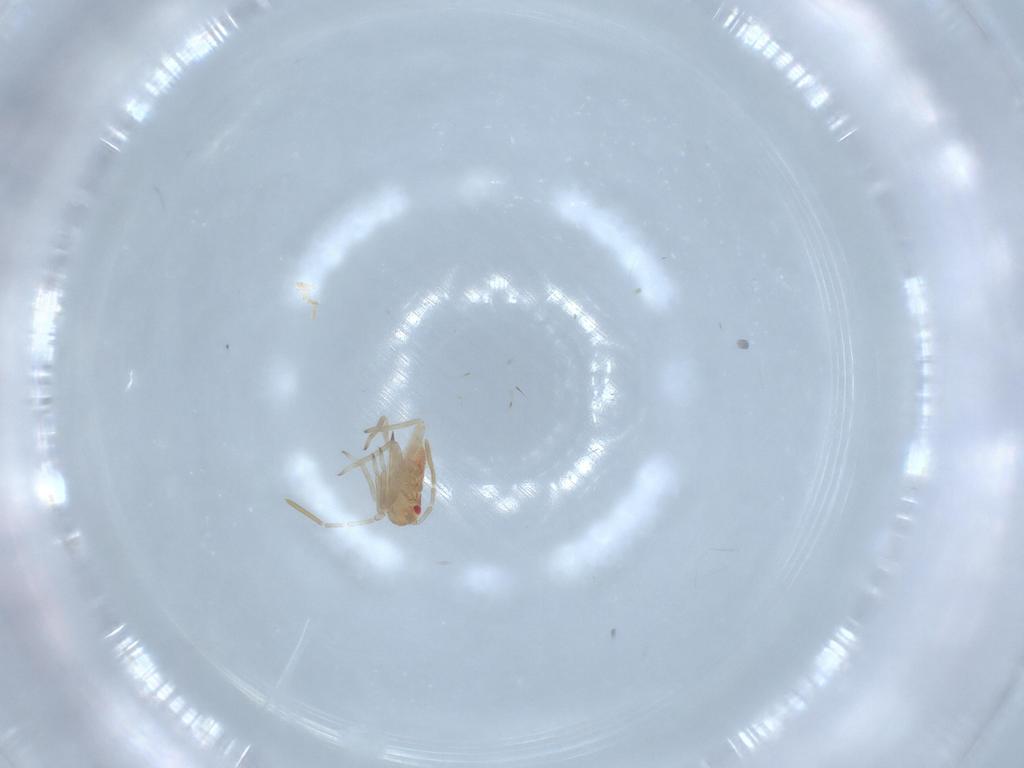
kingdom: Animalia
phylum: Arthropoda
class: Insecta
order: Hemiptera
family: Miridae
